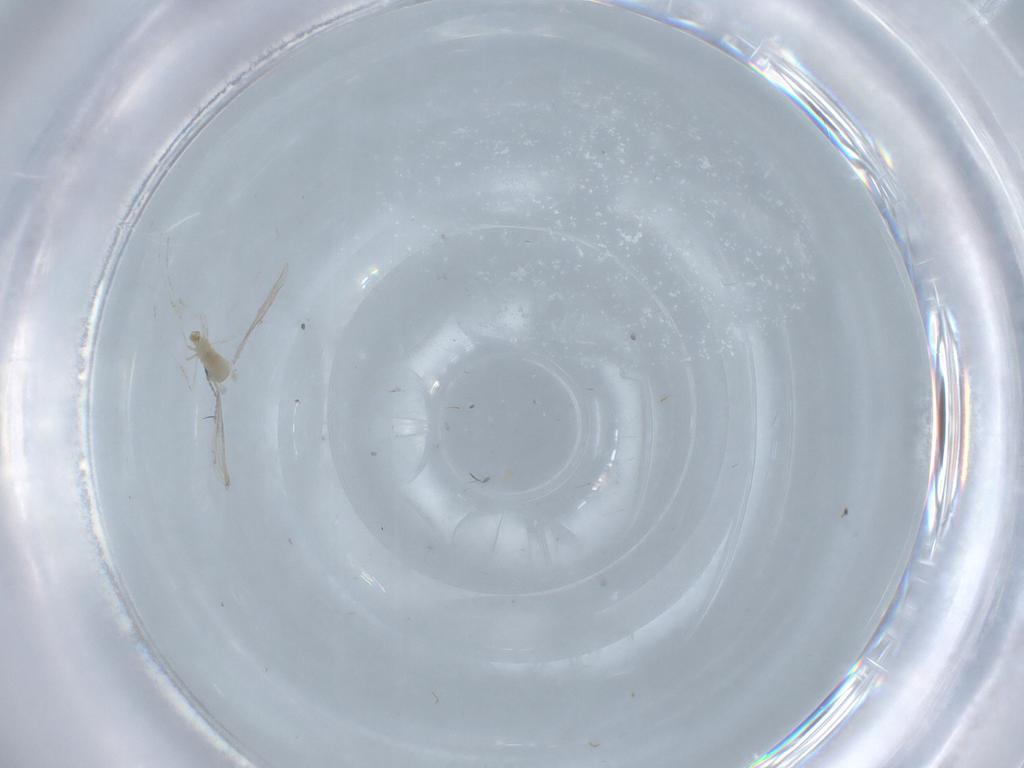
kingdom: Animalia
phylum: Arthropoda
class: Insecta
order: Diptera
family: Cecidomyiidae
